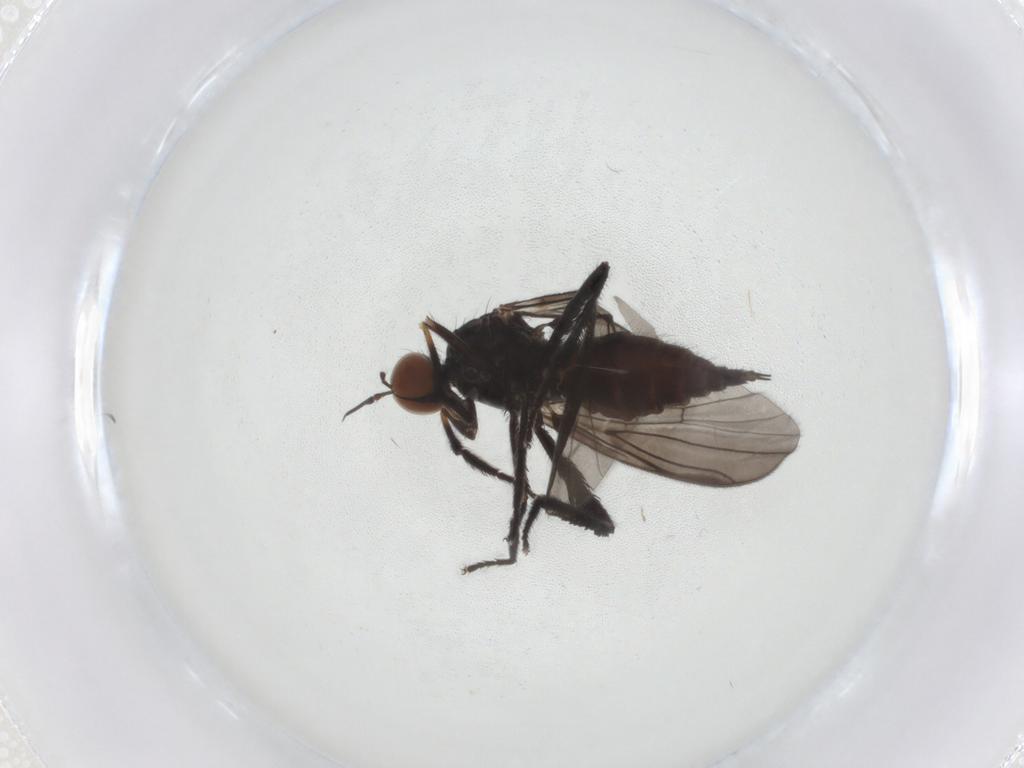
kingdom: Animalia
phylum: Arthropoda
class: Insecta
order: Diptera
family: Empididae
